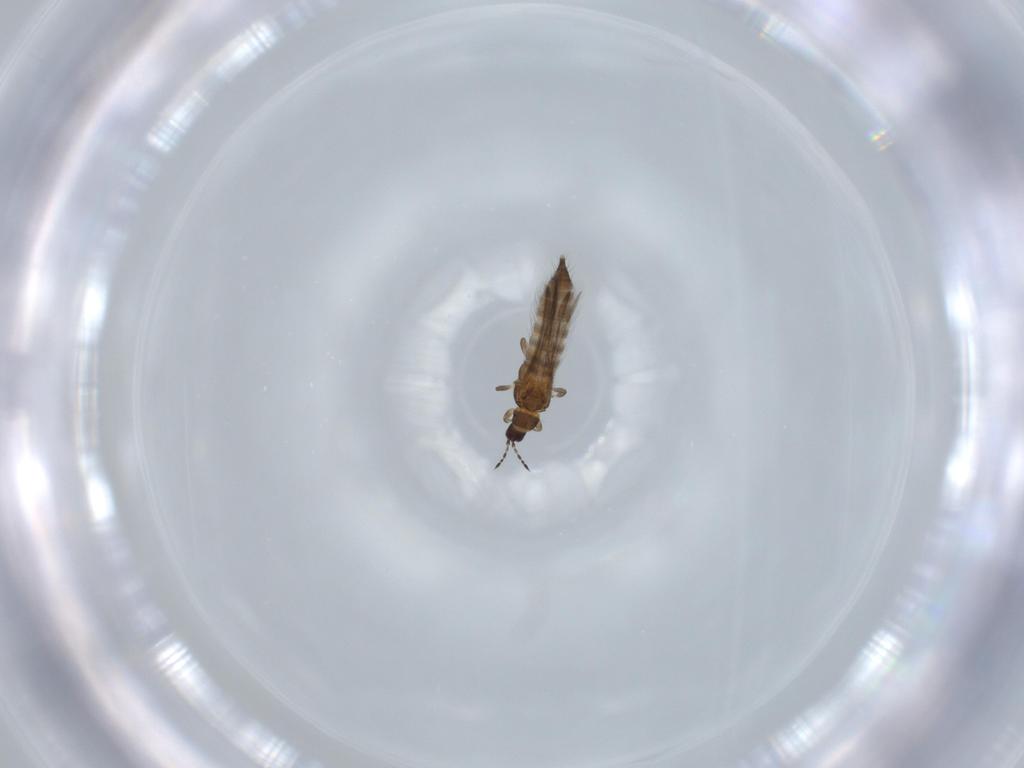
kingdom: Animalia
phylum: Arthropoda
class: Insecta
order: Thysanoptera
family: Thripidae
